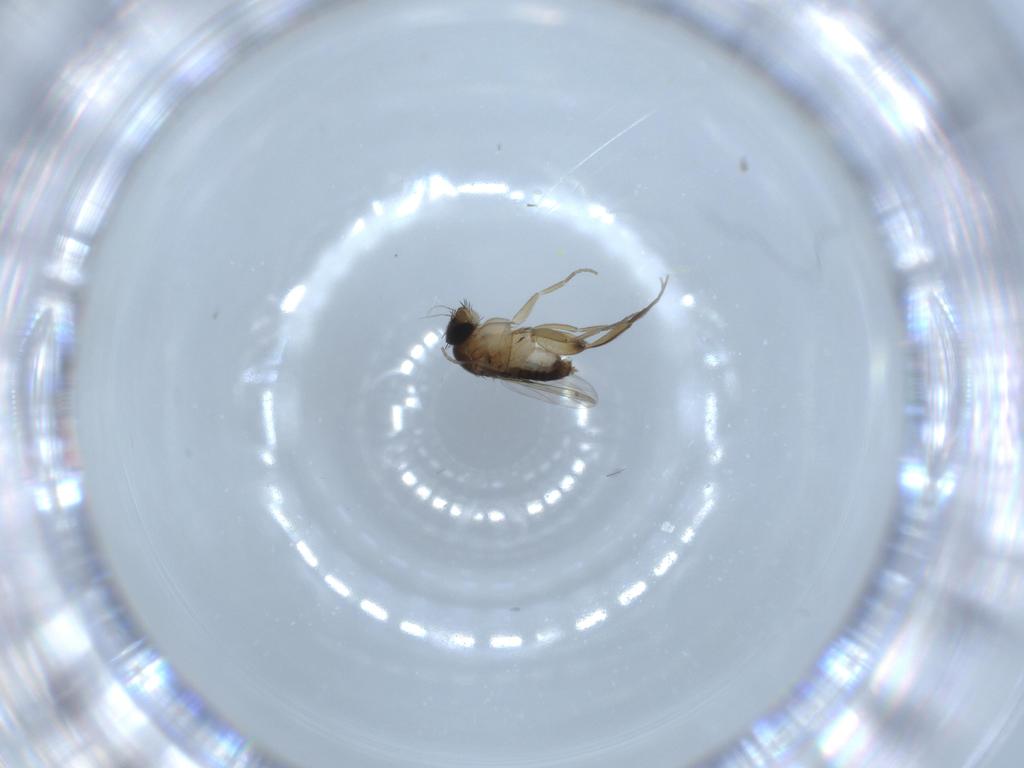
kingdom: Animalia
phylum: Arthropoda
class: Insecta
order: Diptera
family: Phoridae
